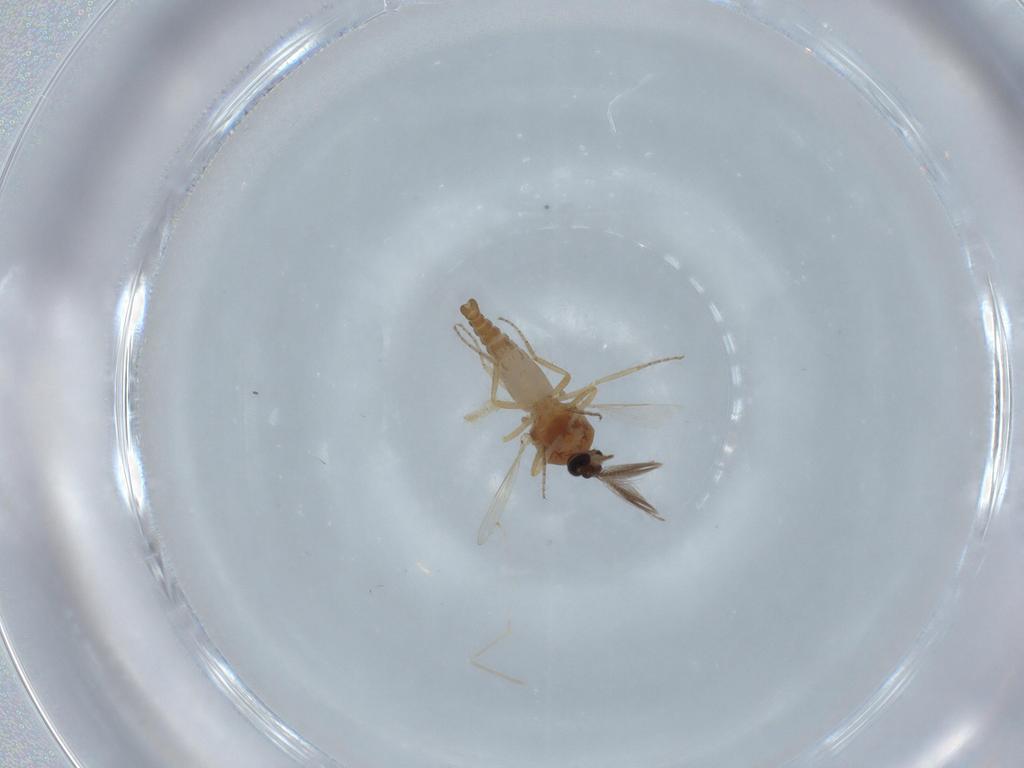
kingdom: Animalia
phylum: Arthropoda
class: Insecta
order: Diptera
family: Ceratopogonidae
